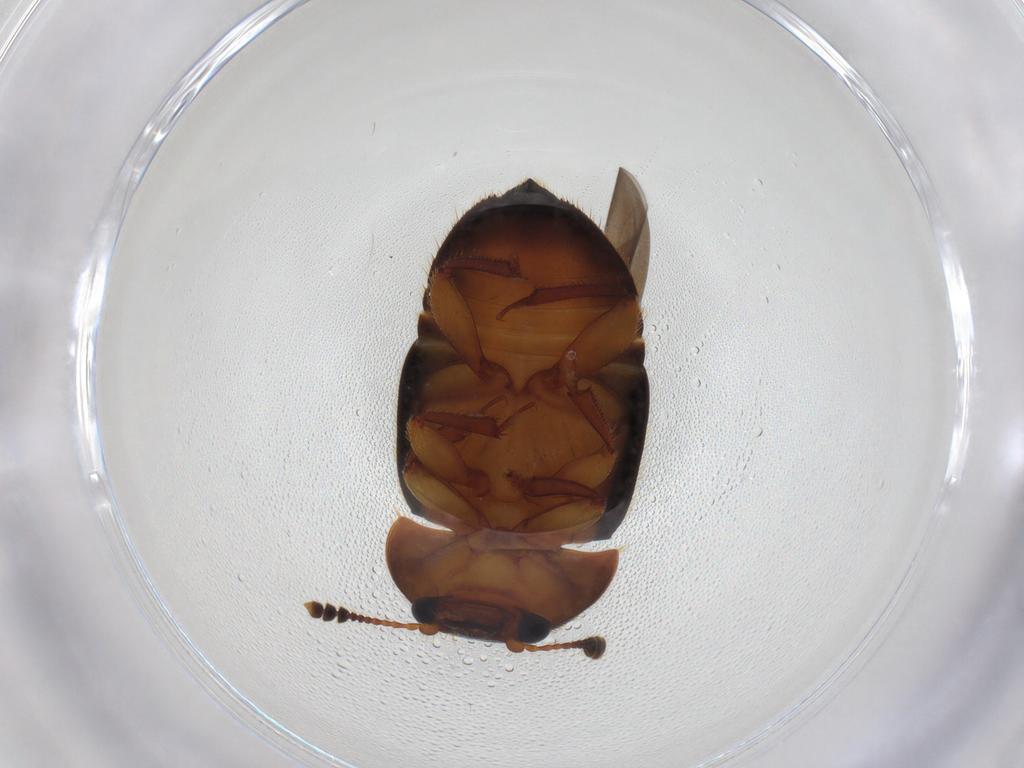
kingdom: Animalia
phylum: Arthropoda
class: Insecta
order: Coleoptera
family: Nitidulidae
